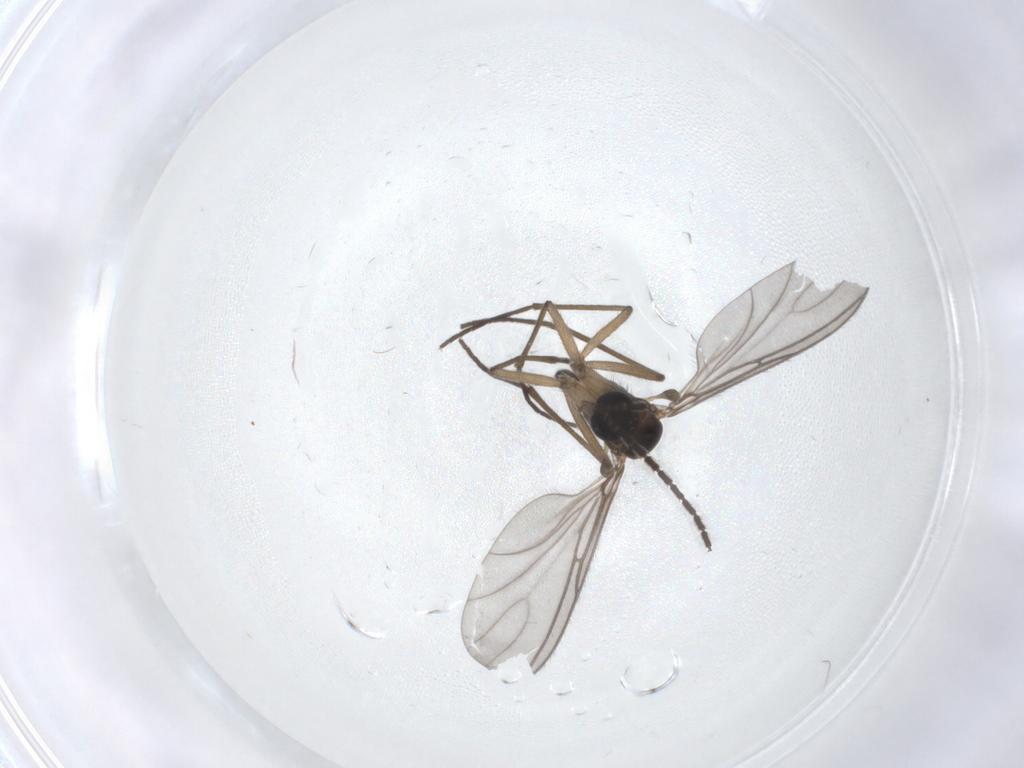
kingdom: Animalia
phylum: Arthropoda
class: Insecta
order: Diptera
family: Sciaridae
